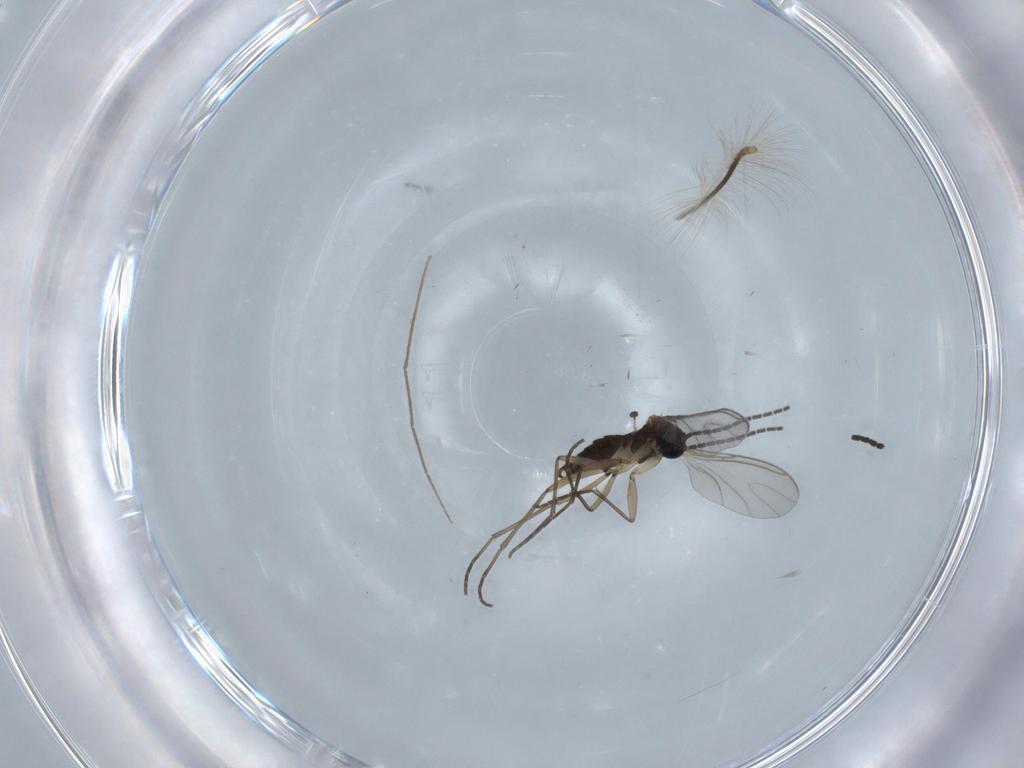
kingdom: Animalia
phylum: Arthropoda
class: Insecta
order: Diptera
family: Sciaridae
